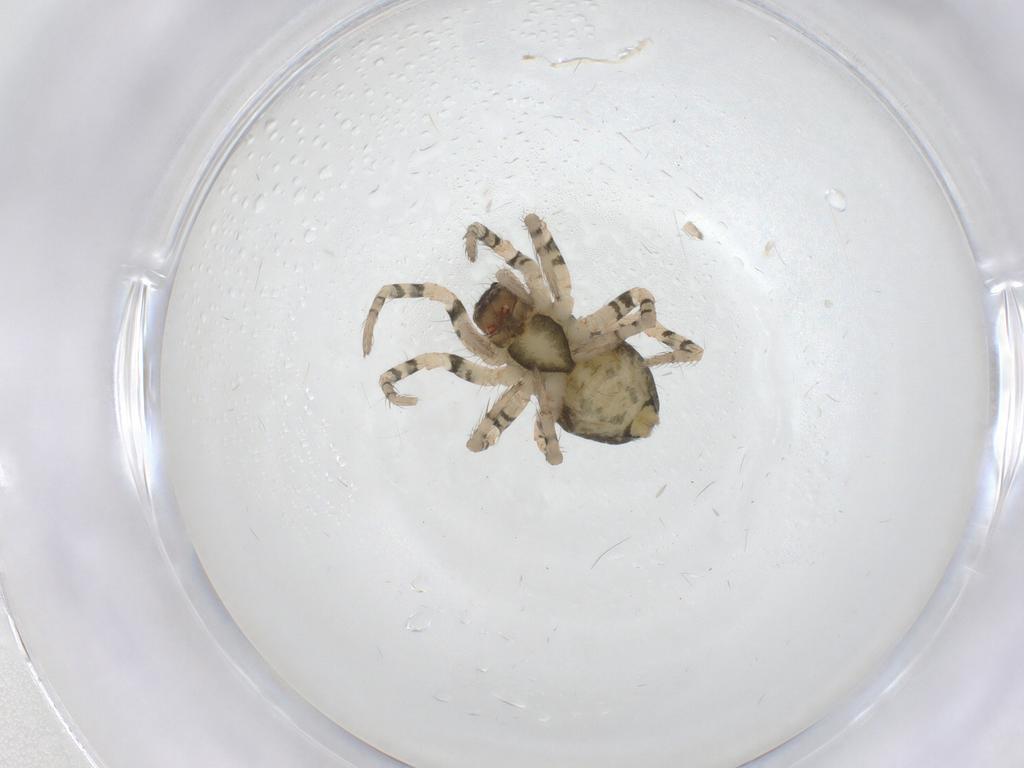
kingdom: Animalia
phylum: Arthropoda
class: Arachnida
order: Araneae
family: Sparassidae
